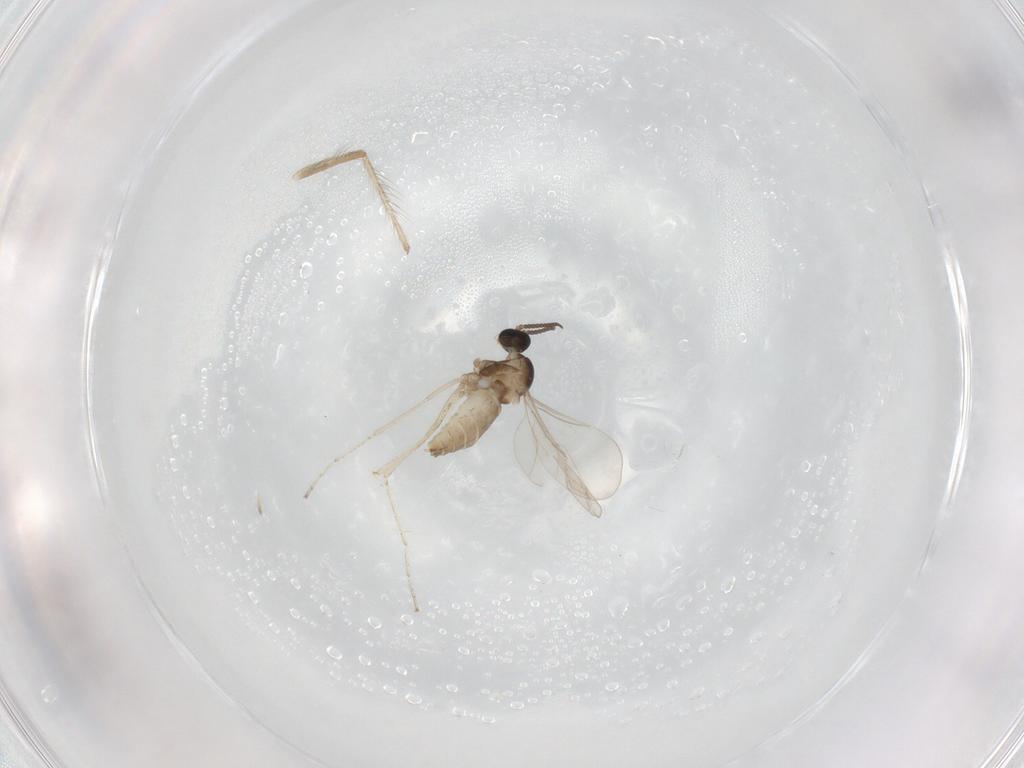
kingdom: Animalia
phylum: Arthropoda
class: Insecta
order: Diptera
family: Cecidomyiidae
